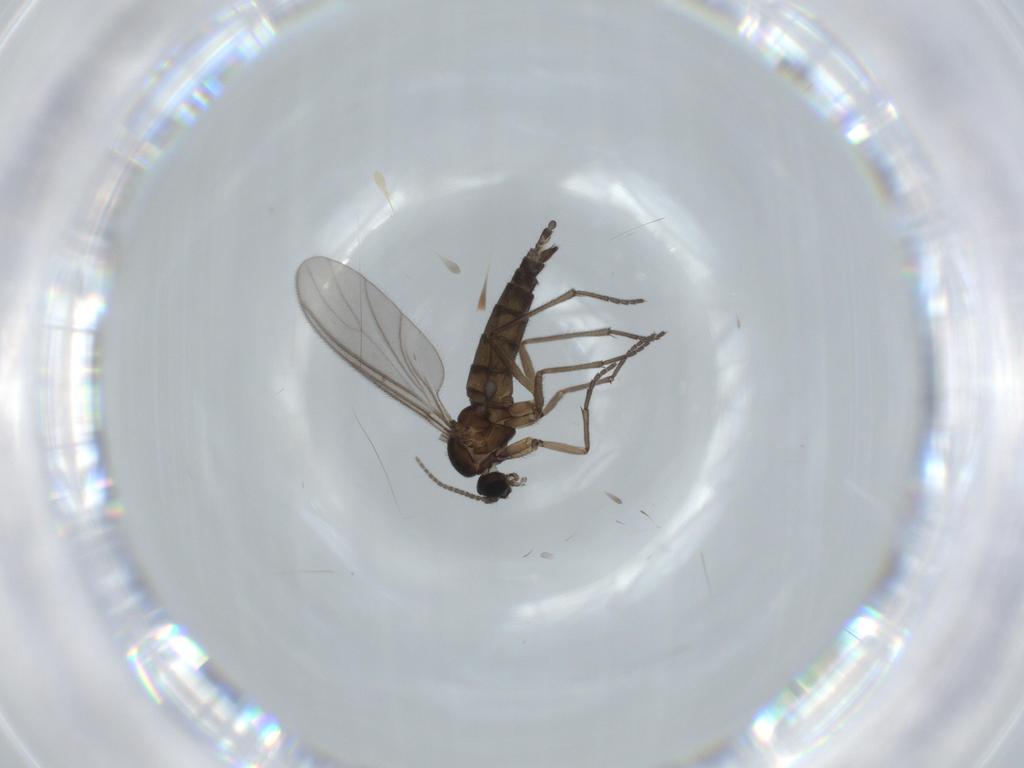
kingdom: Animalia
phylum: Arthropoda
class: Insecta
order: Diptera
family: Sciaridae
